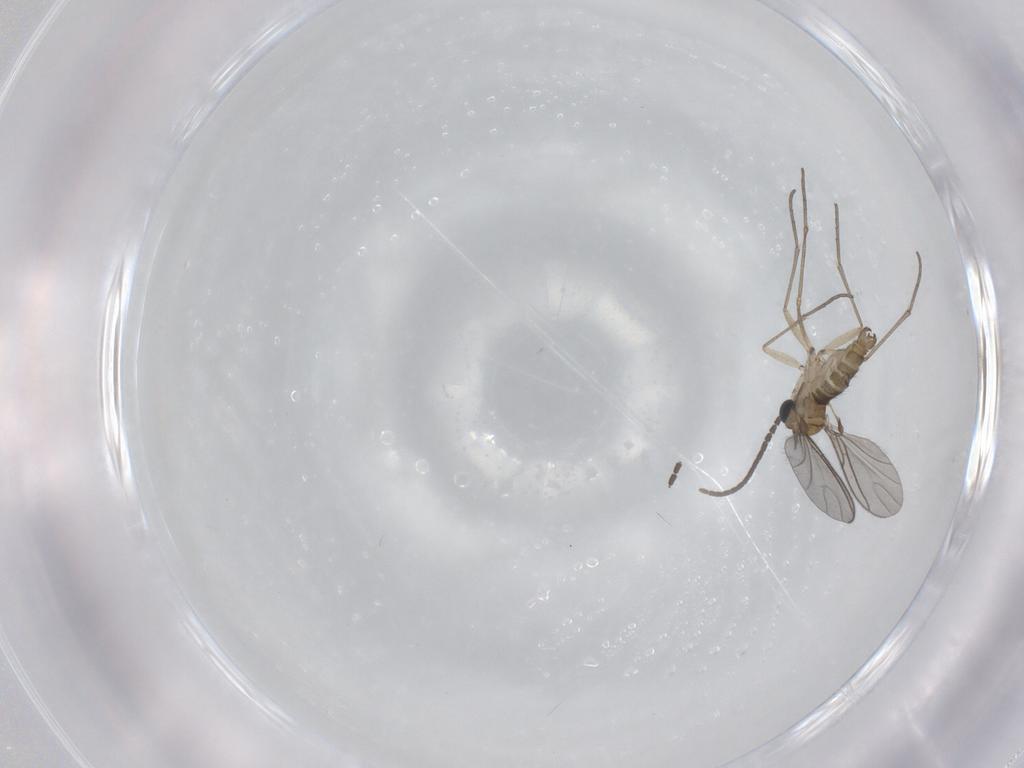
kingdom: Animalia
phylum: Arthropoda
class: Insecta
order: Diptera
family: Sciaridae
